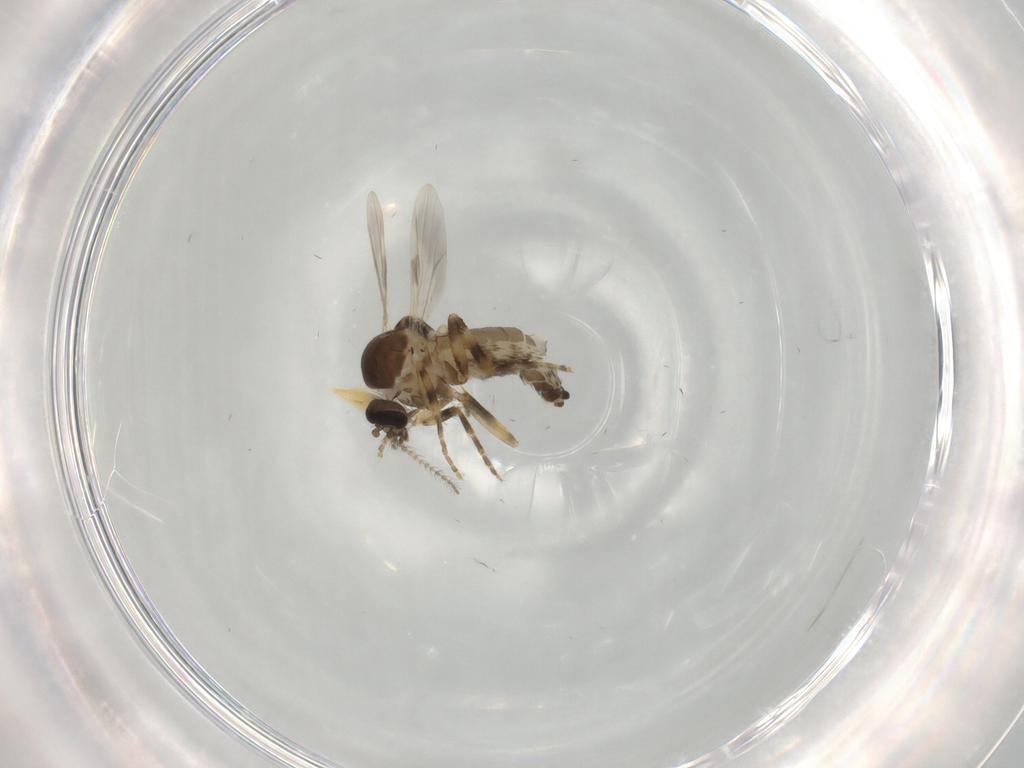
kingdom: Animalia
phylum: Arthropoda
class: Insecta
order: Diptera
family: Ceratopogonidae
